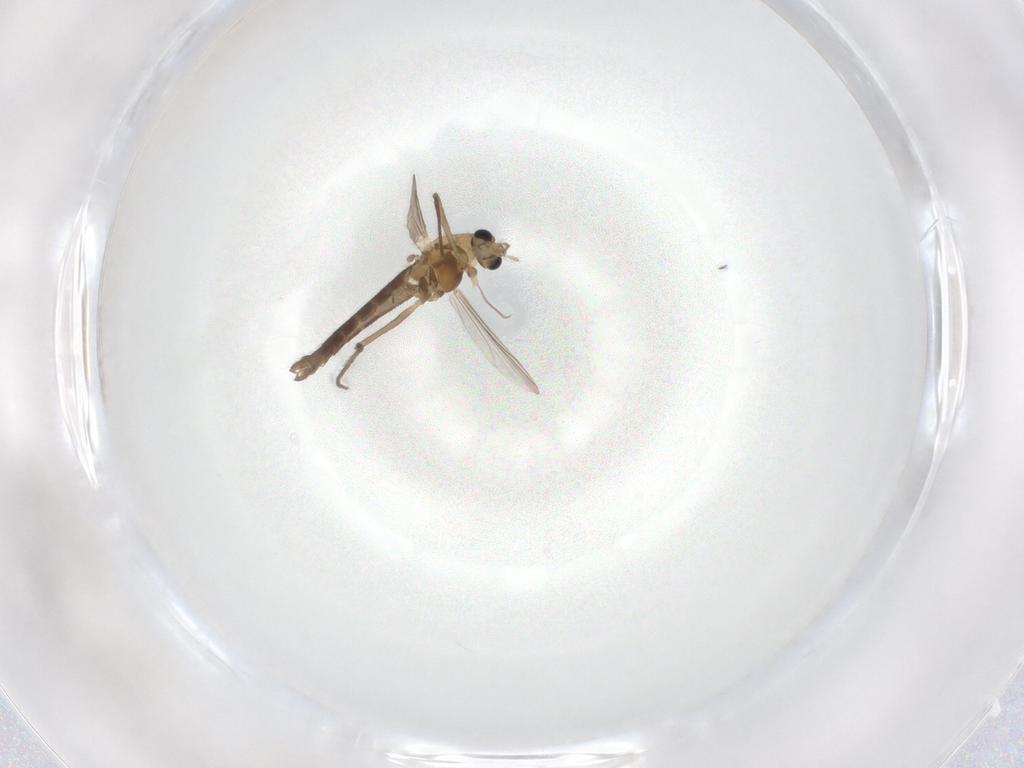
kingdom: Animalia
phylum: Arthropoda
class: Insecta
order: Diptera
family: Chironomidae
